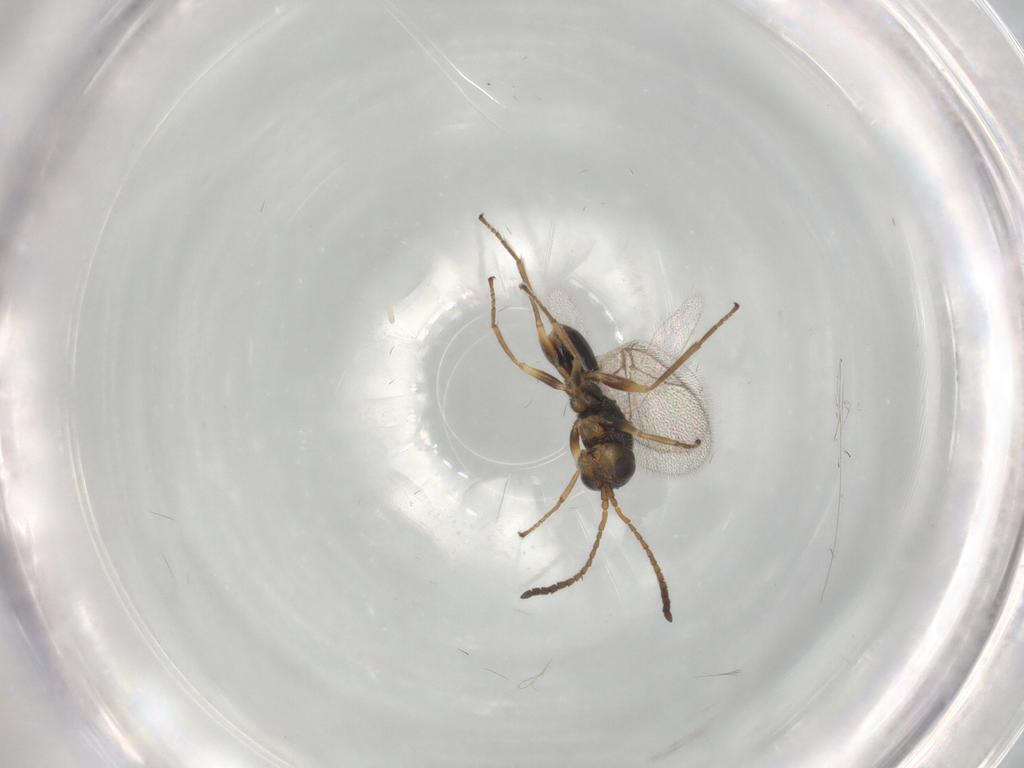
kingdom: Animalia
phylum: Arthropoda
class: Insecta
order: Hymenoptera
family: Cynipidae
